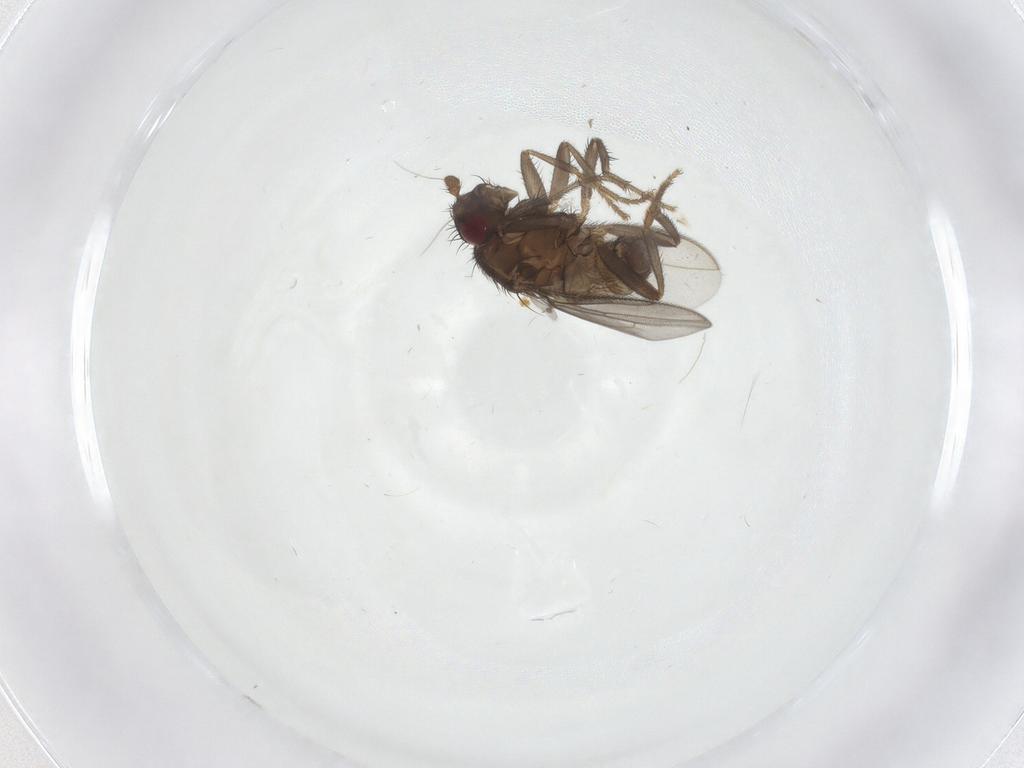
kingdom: Animalia
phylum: Arthropoda
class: Insecta
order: Diptera
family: Sphaeroceridae
